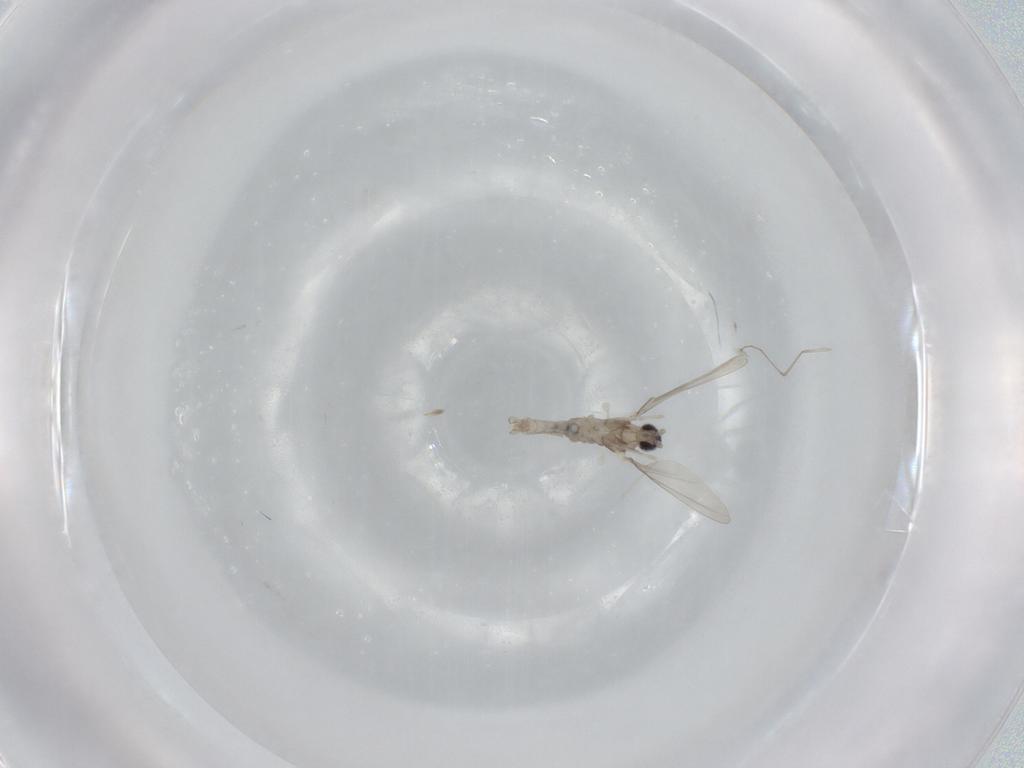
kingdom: Animalia
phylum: Arthropoda
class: Insecta
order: Diptera
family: Cecidomyiidae
